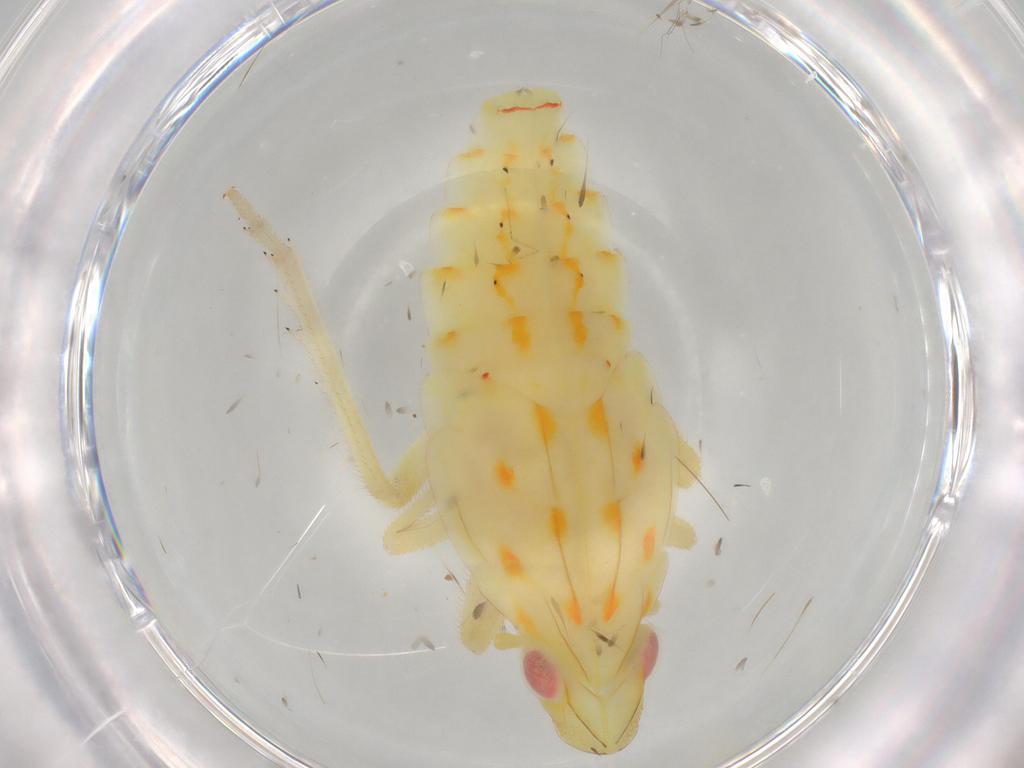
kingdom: Animalia
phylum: Arthropoda
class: Insecta
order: Hemiptera
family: Tropiduchidae
